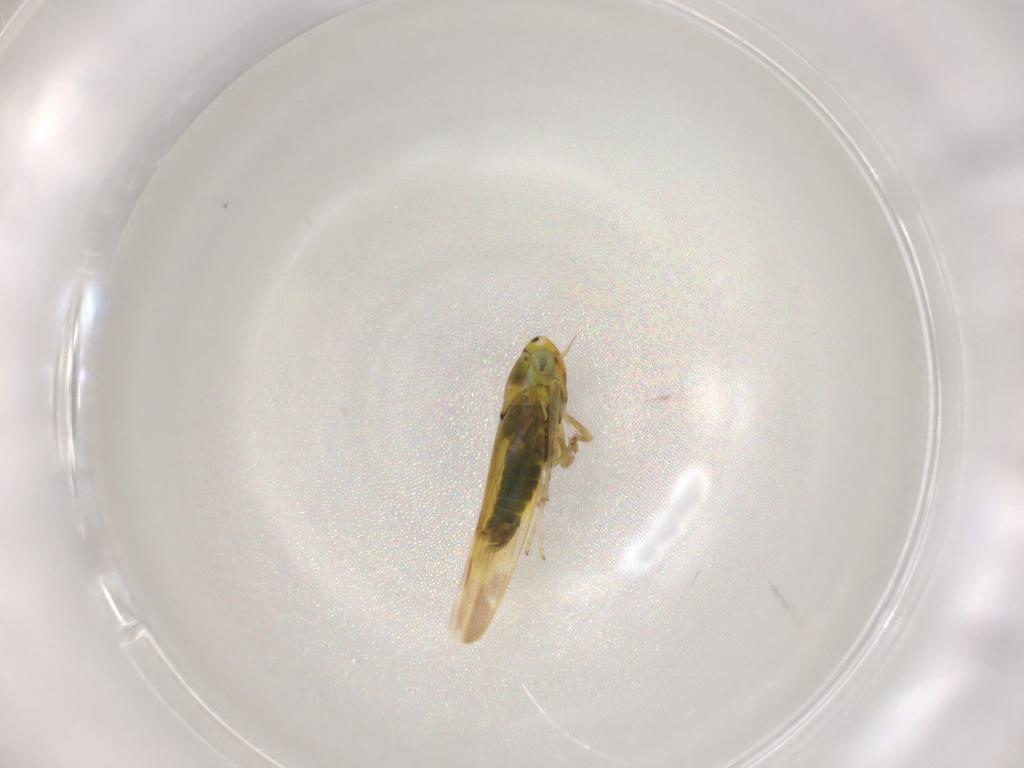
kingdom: Animalia
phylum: Arthropoda
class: Insecta
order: Hemiptera
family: Cicadellidae
